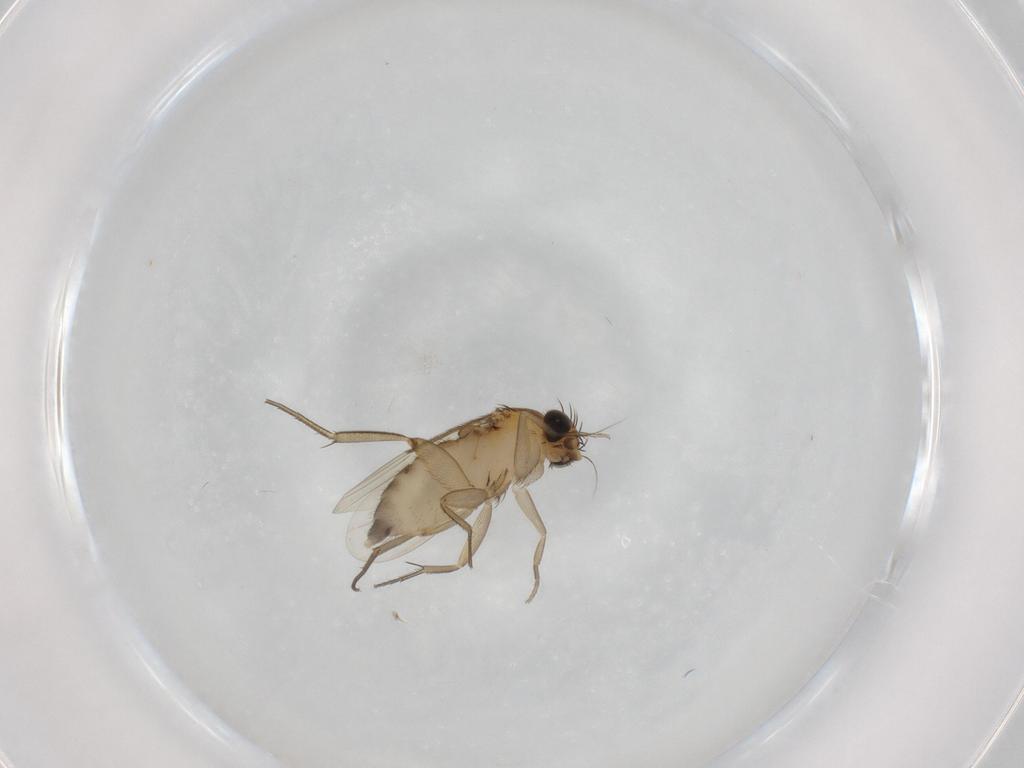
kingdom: Animalia
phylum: Arthropoda
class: Insecta
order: Diptera
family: Phoridae
